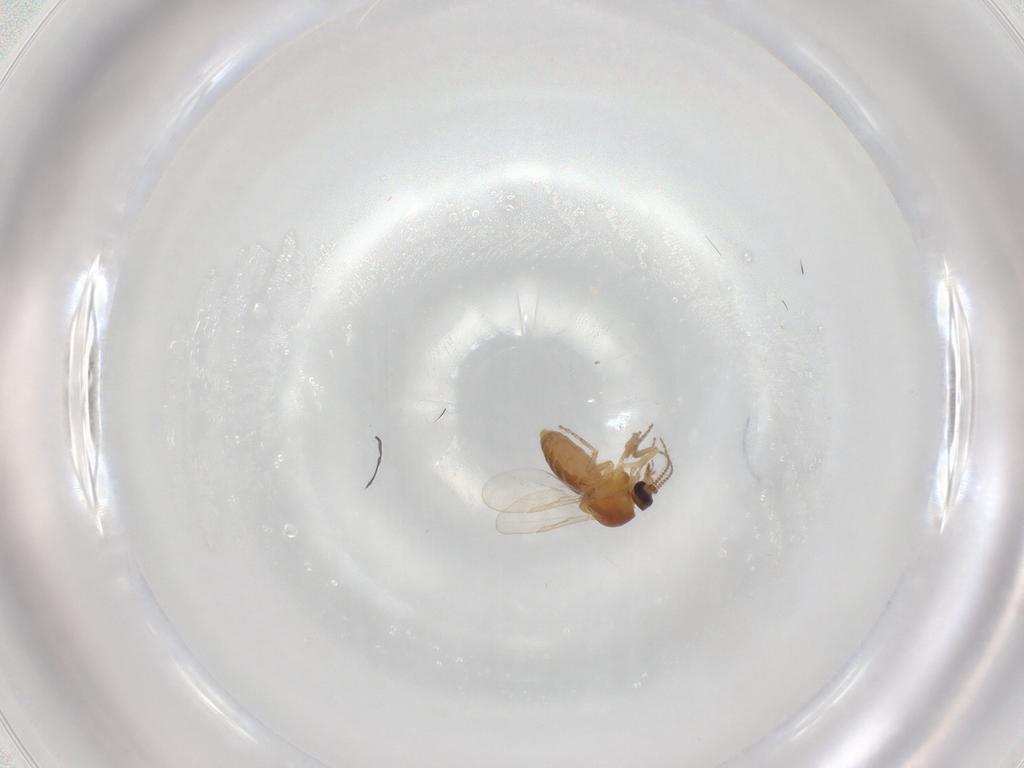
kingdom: Animalia
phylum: Arthropoda
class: Insecta
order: Diptera
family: Ceratopogonidae
